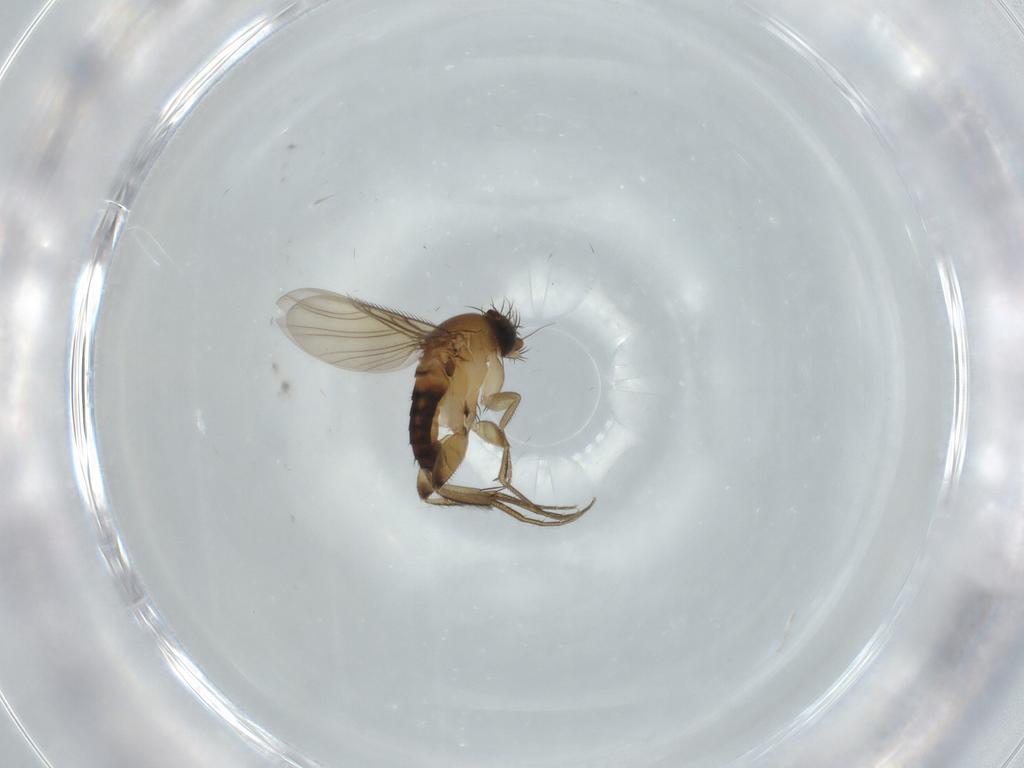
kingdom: Animalia
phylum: Arthropoda
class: Insecta
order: Diptera
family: Phoridae
